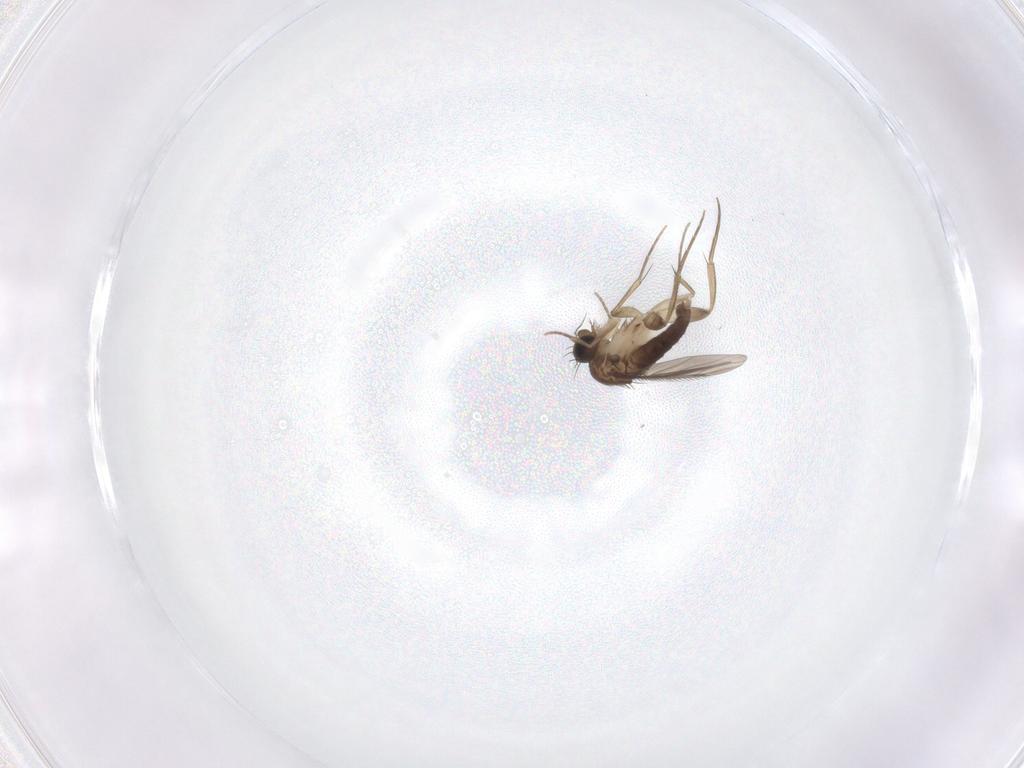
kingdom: Animalia
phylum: Arthropoda
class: Insecta
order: Diptera
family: Phoridae
